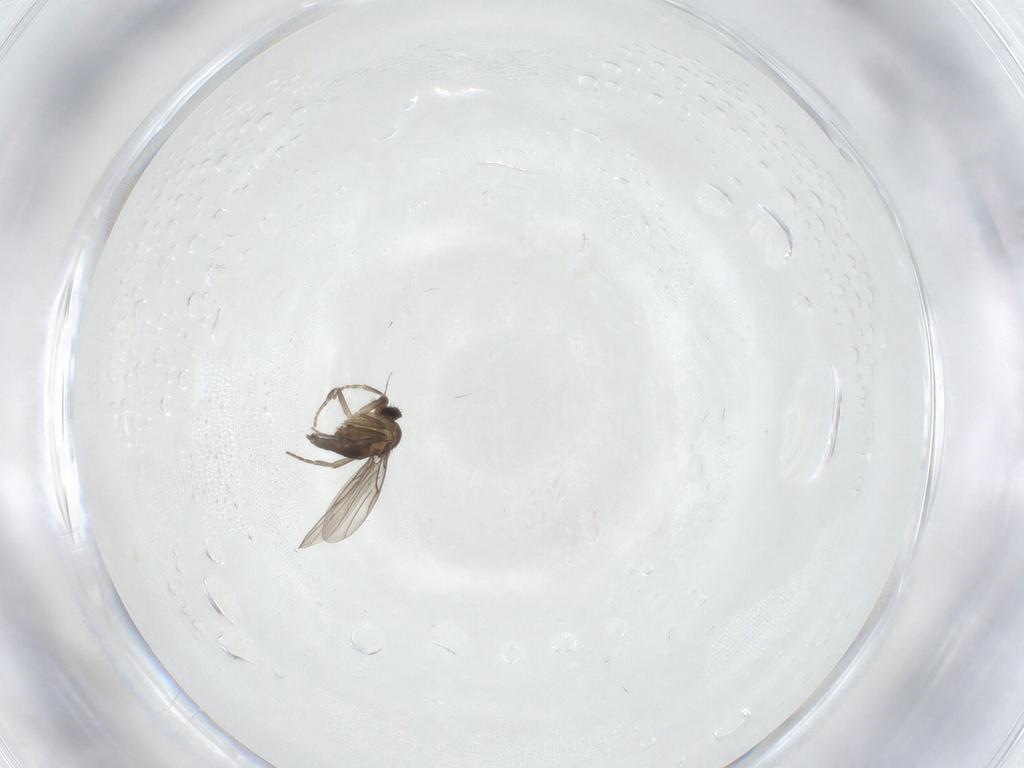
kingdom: Animalia
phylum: Arthropoda
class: Insecta
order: Diptera
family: Phoridae
